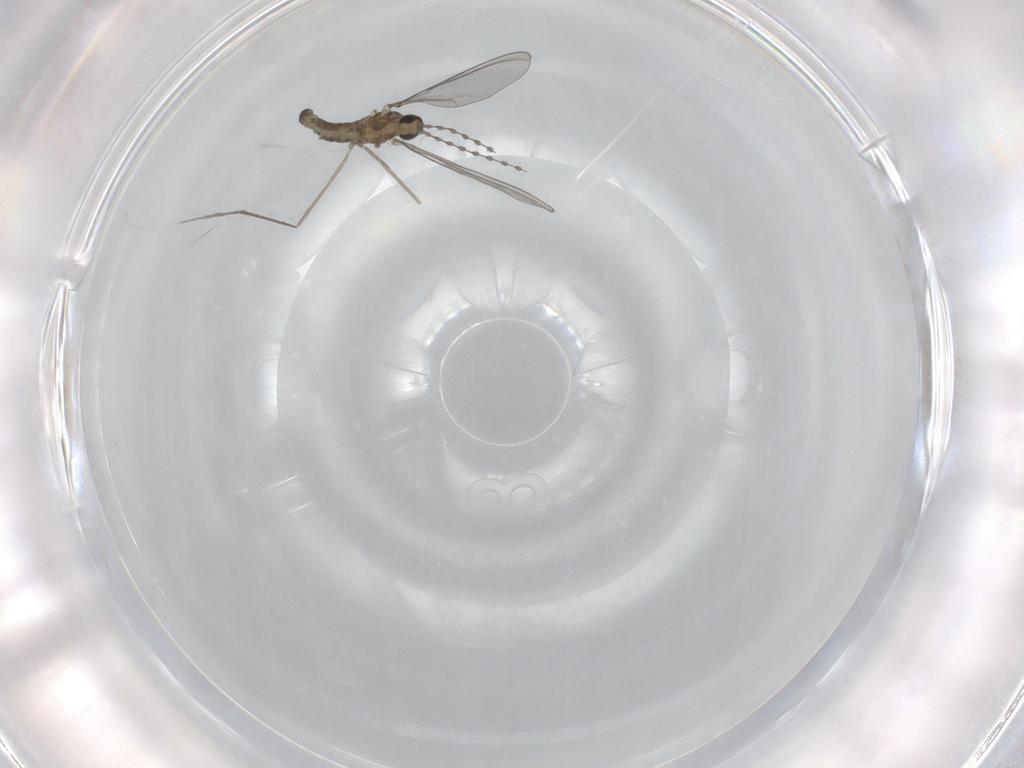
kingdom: Animalia
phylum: Arthropoda
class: Insecta
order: Diptera
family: Cecidomyiidae
